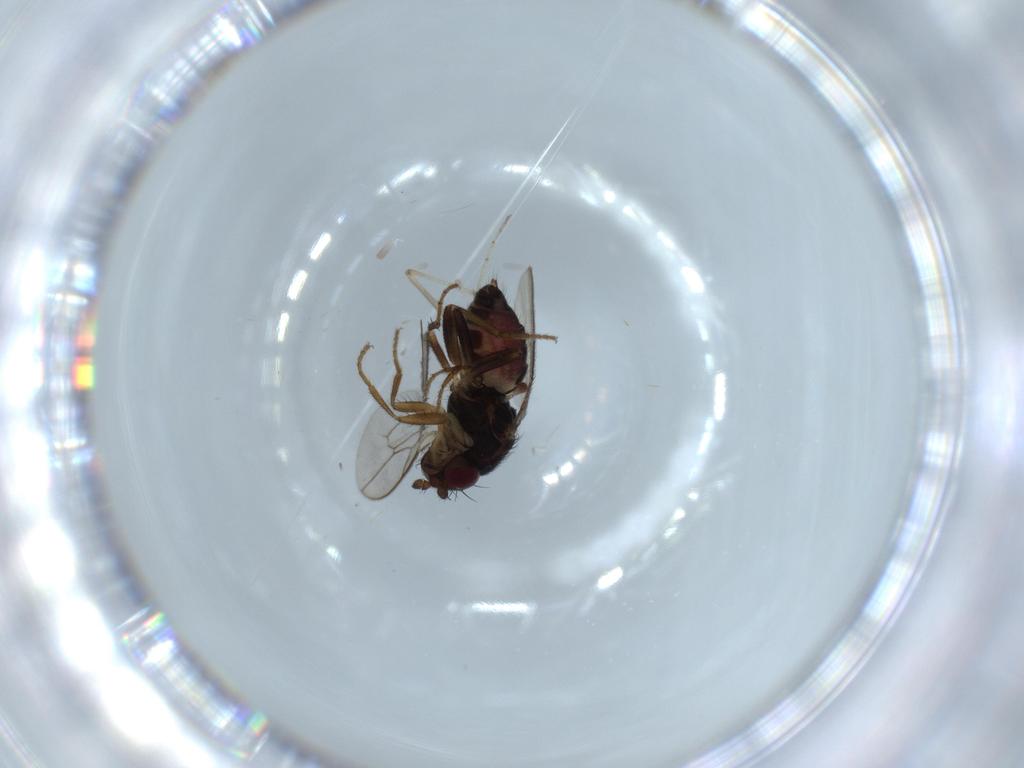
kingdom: Animalia
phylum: Arthropoda
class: Insecta
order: Diptera
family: Sphaeroceridae
